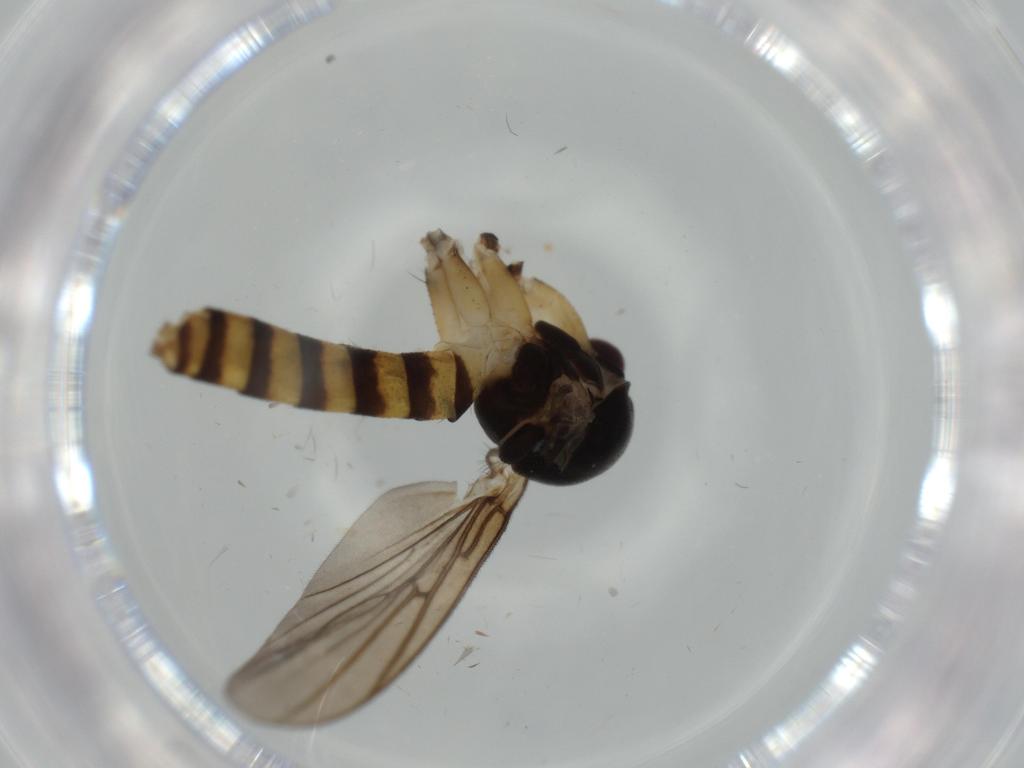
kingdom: Animalia
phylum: Arthropoda
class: Insecta
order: Diptera
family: Cecidomyiidae
